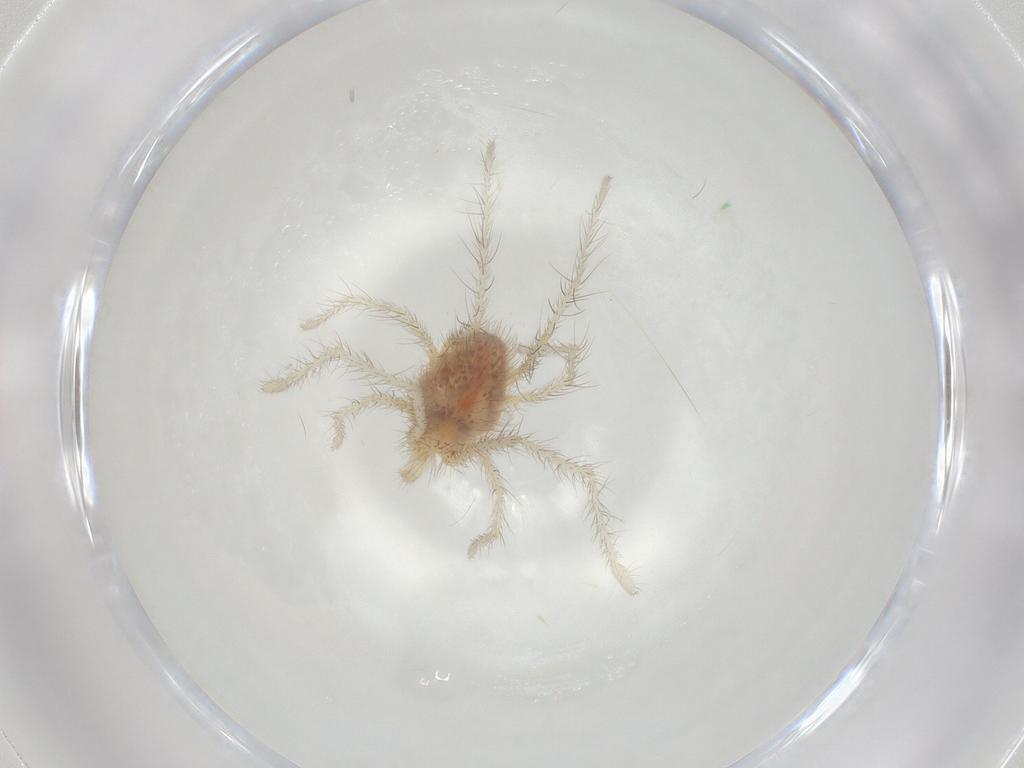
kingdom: Animalia
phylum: Arthropoda
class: Arachnida
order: Trombidiformes
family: Erythraeidae
